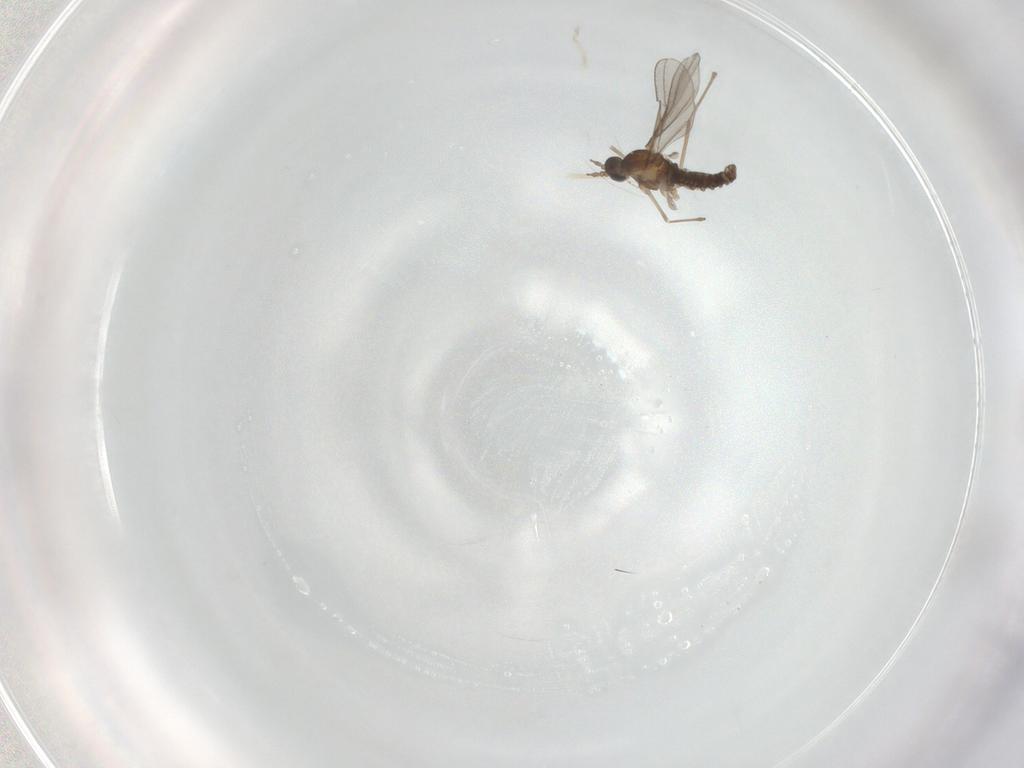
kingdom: Animalia
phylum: Arthropoda
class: Insecta
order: Diptera
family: Cecidomyiidae
